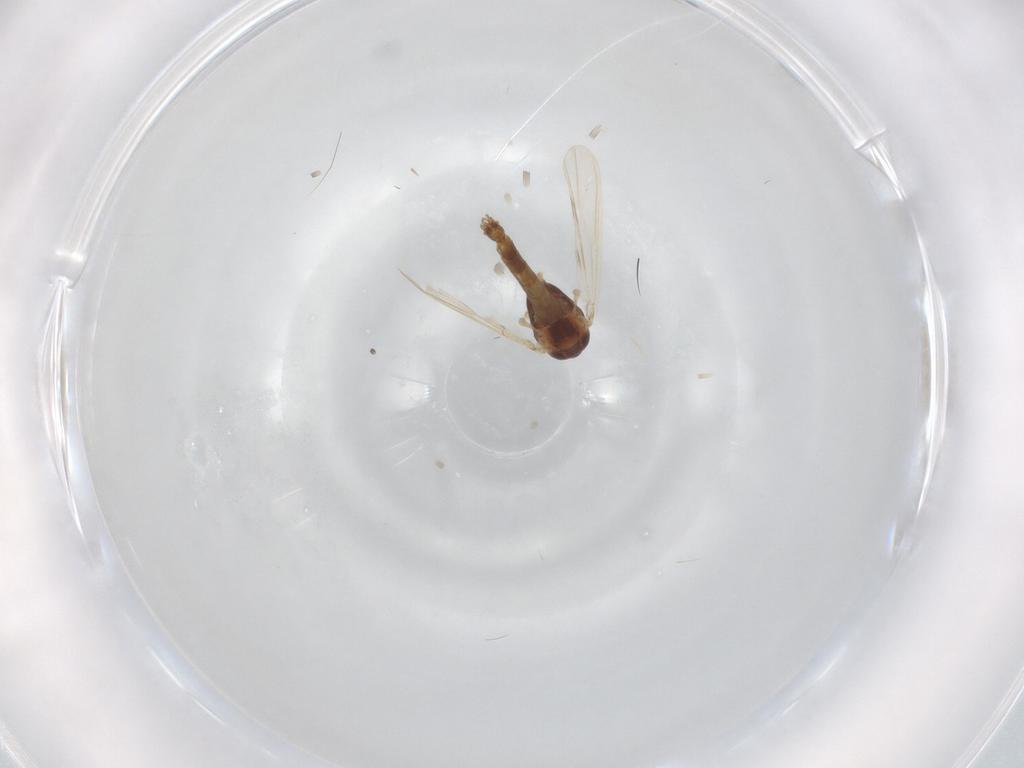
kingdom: Animalia
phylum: Arthropoda
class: Insecta
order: Diptera
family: Chironomidae
